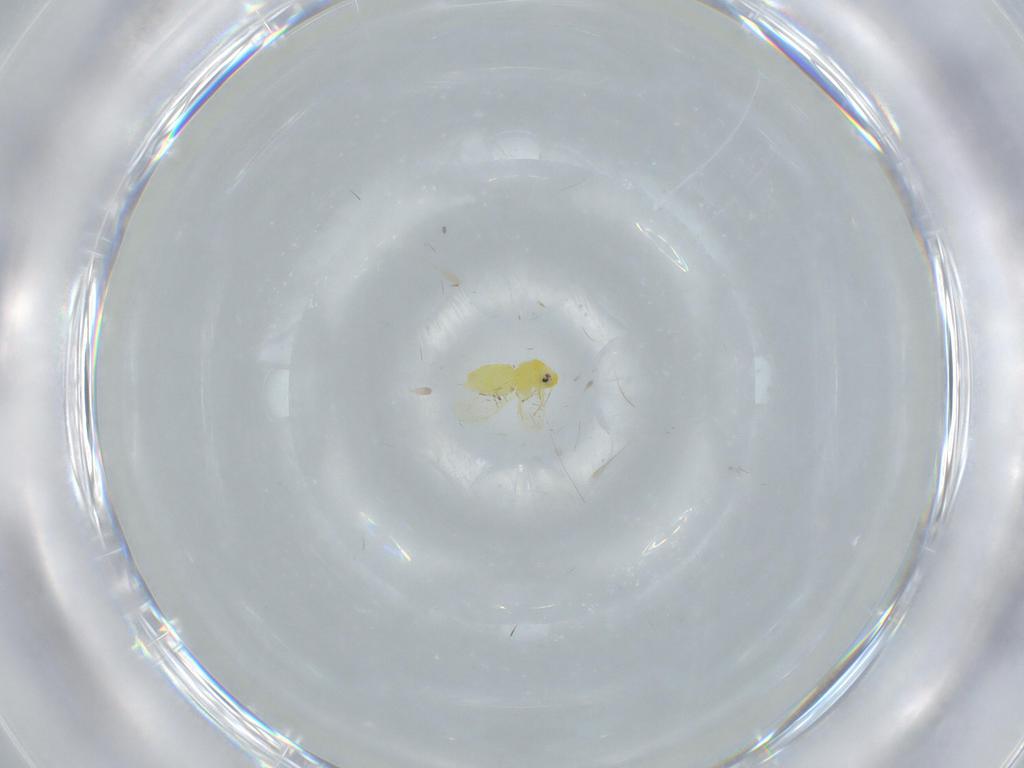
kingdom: Animalia
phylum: Arthropoda
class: Insecta
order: Hemiptera
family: Aleyrodidae
